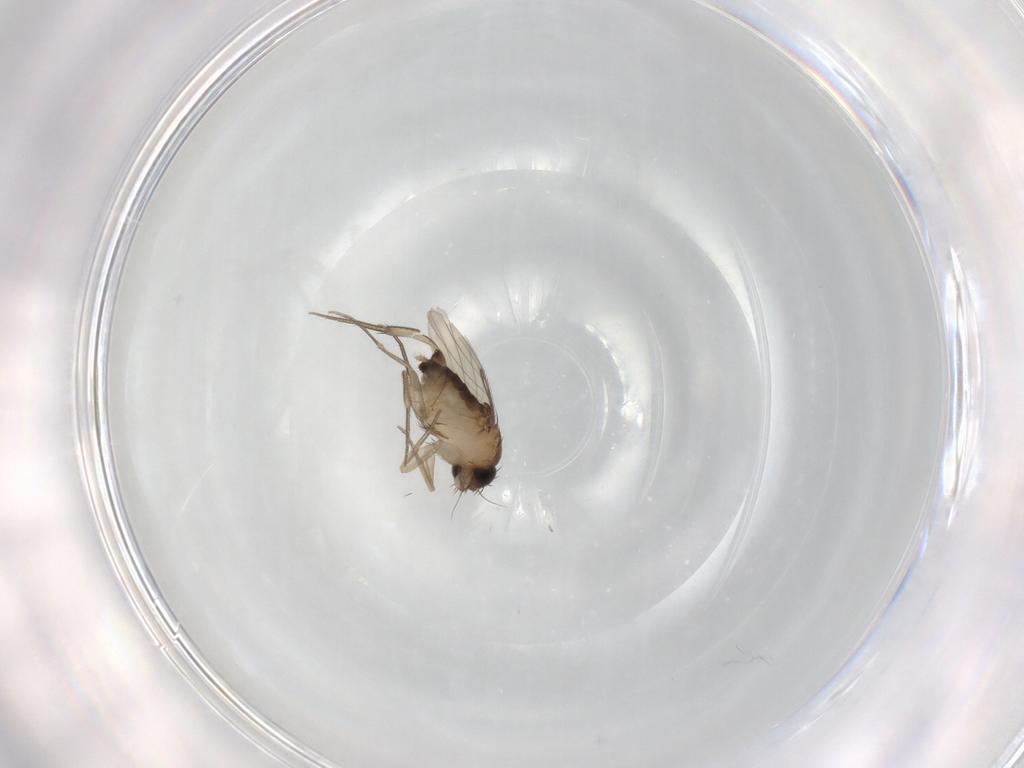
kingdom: Animalia
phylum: Arthropoda
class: Insecta
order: Diptera
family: Phoridae
